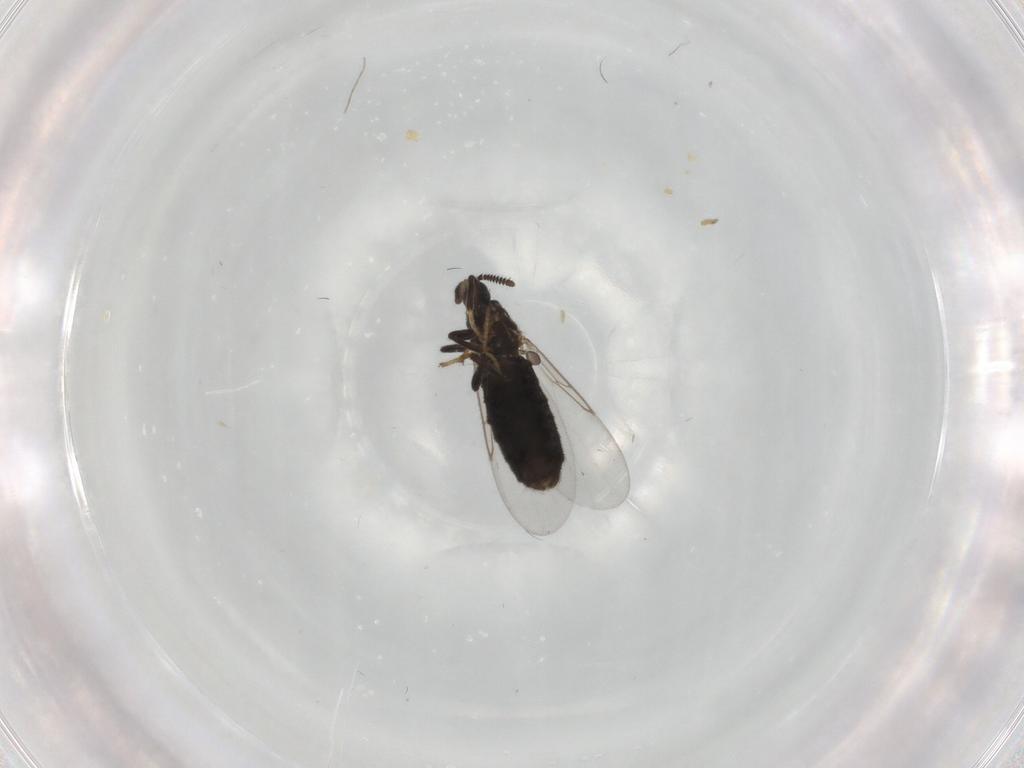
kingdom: Animalia
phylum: Arthropoda
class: Insecta
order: Diptera
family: Scatopsidae
